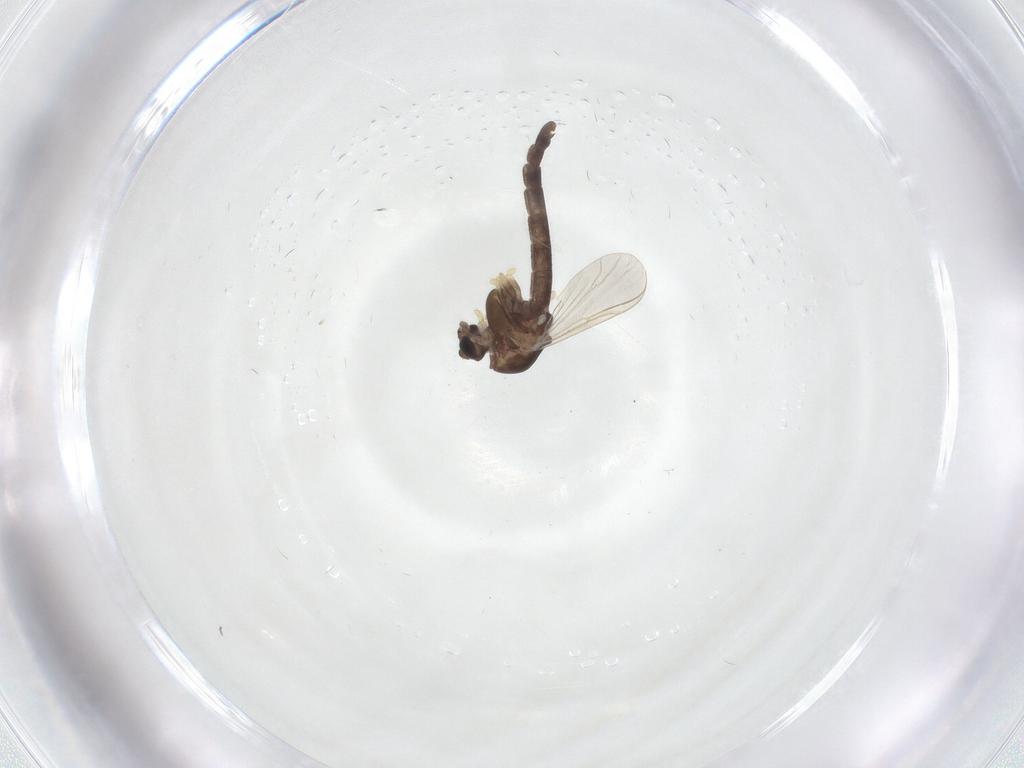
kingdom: Animalia
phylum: Arthropoda
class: Insecta
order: Diptera
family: Chironomidae
